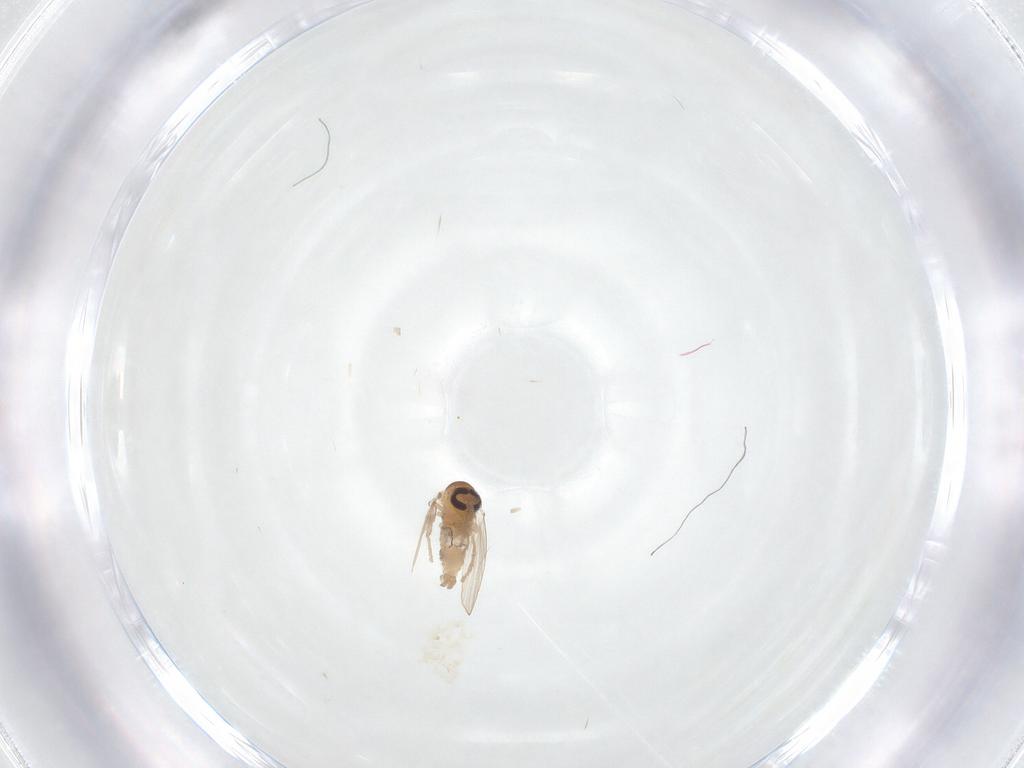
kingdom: Animalia
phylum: Arthropoda
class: Insecta
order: Diptera
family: Psychodidae
